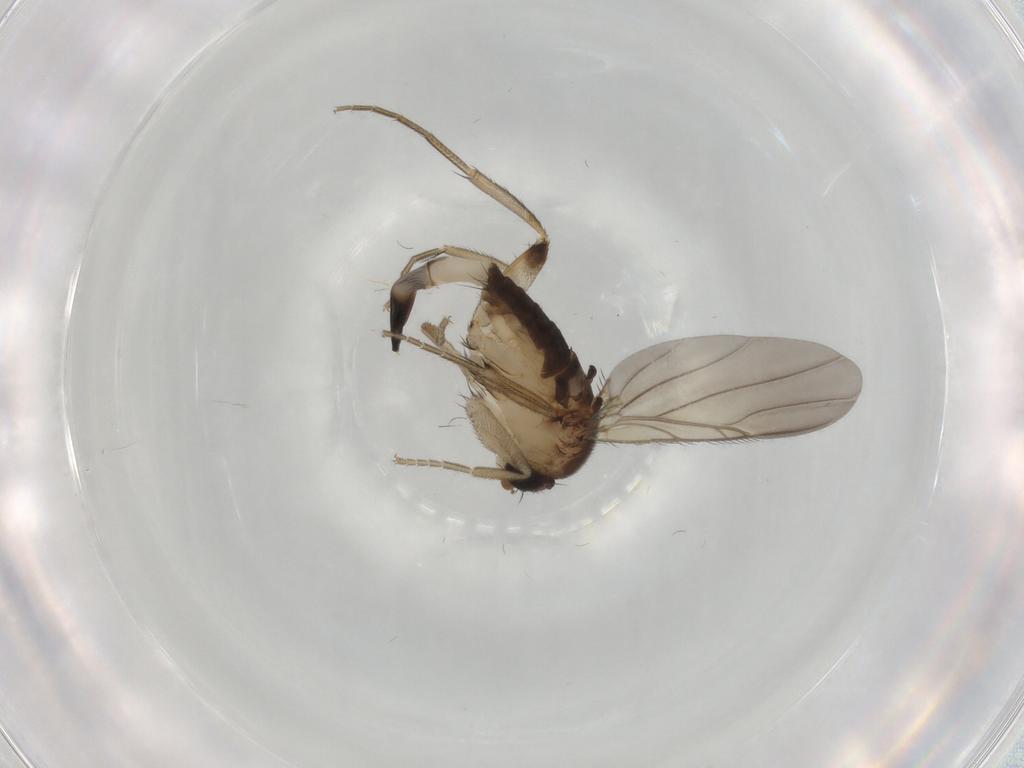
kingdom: Animalia
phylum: Arthropoda
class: Insecta
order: Diptera
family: Phoridae
